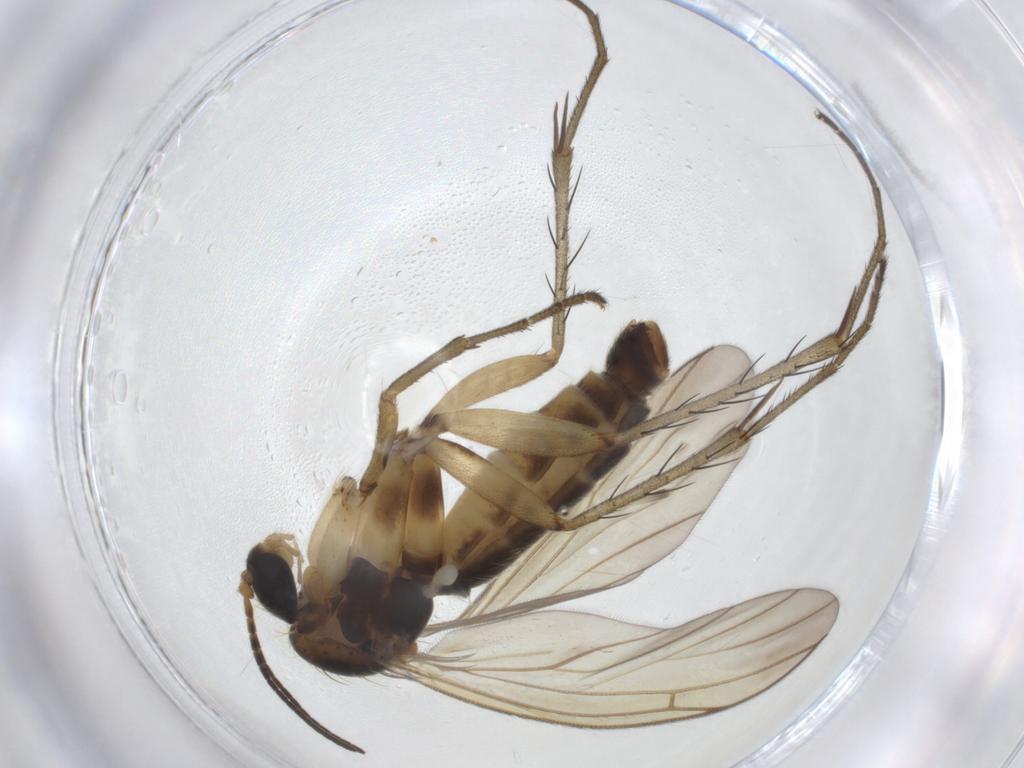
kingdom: Animalia
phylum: Arthropoda
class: Insecta
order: Diptera
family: Mycetophilidae
